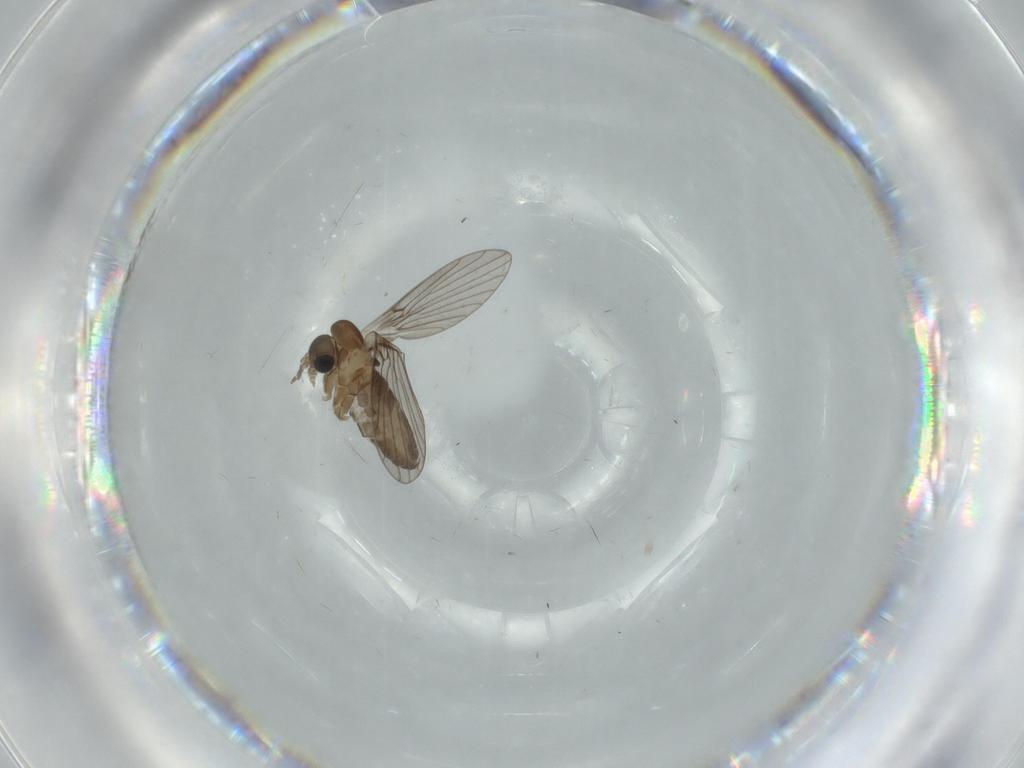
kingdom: Animalia
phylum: Arthropoda
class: Insecta
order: Diptera
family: Psychodidae
